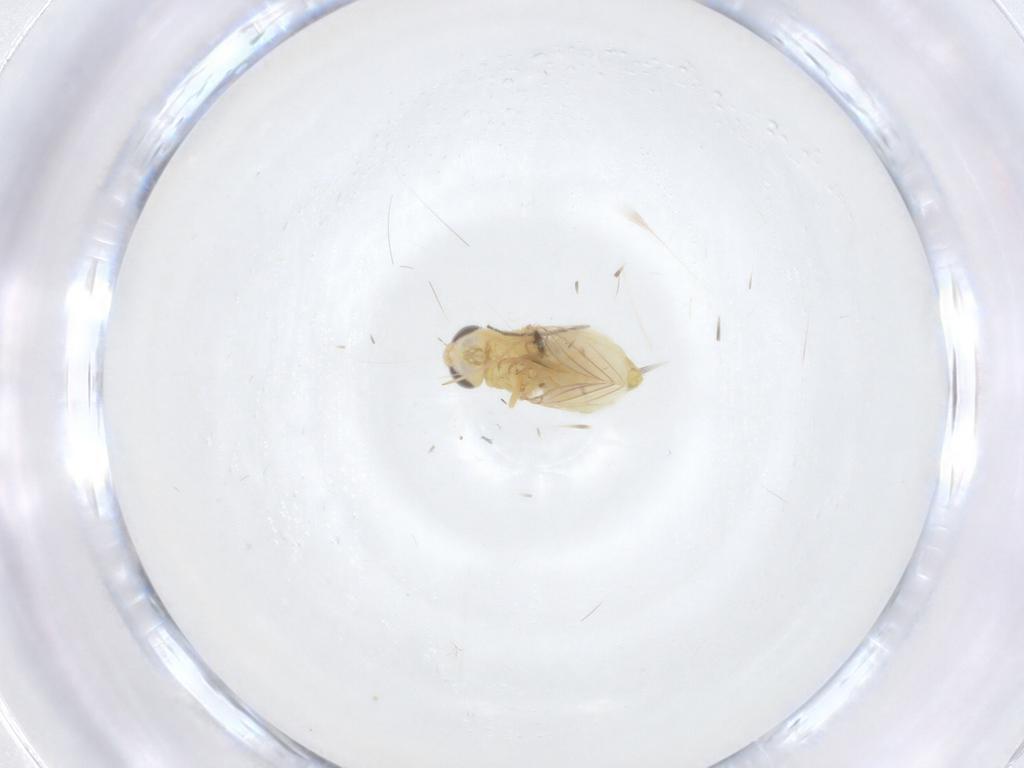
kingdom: Animalia
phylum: Arthropoda
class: Insecta
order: Diptera
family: Chyromyidae
